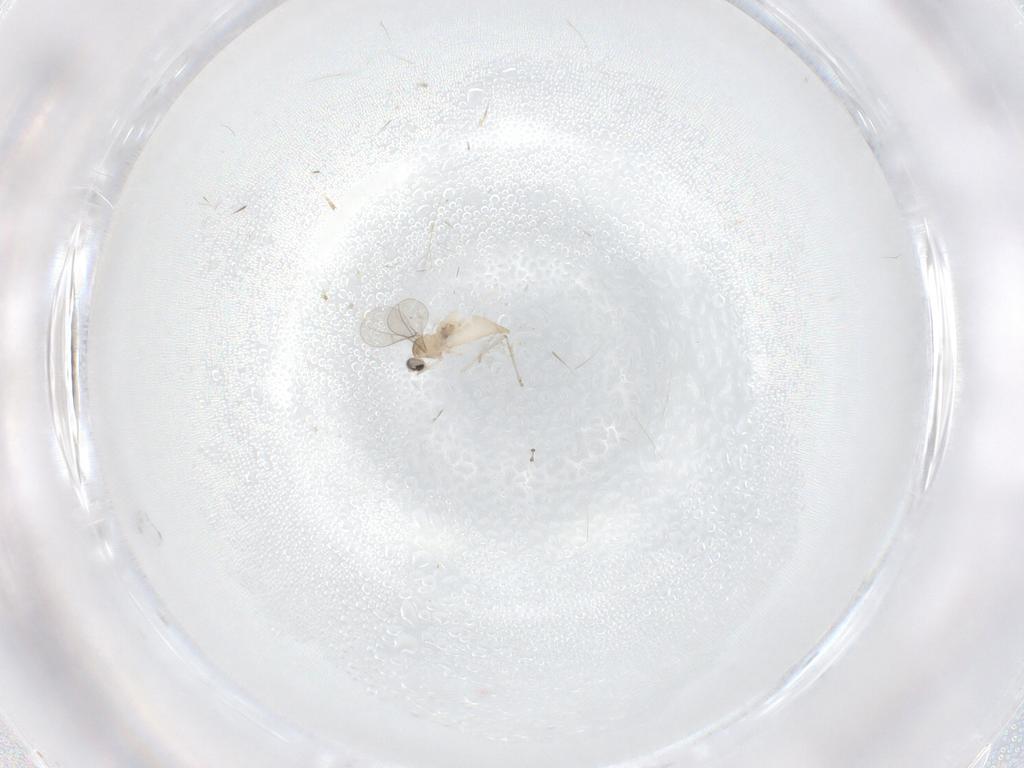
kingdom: Animalia
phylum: Arthropoda
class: Insecta
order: Diptera
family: Cecidomyiidae
